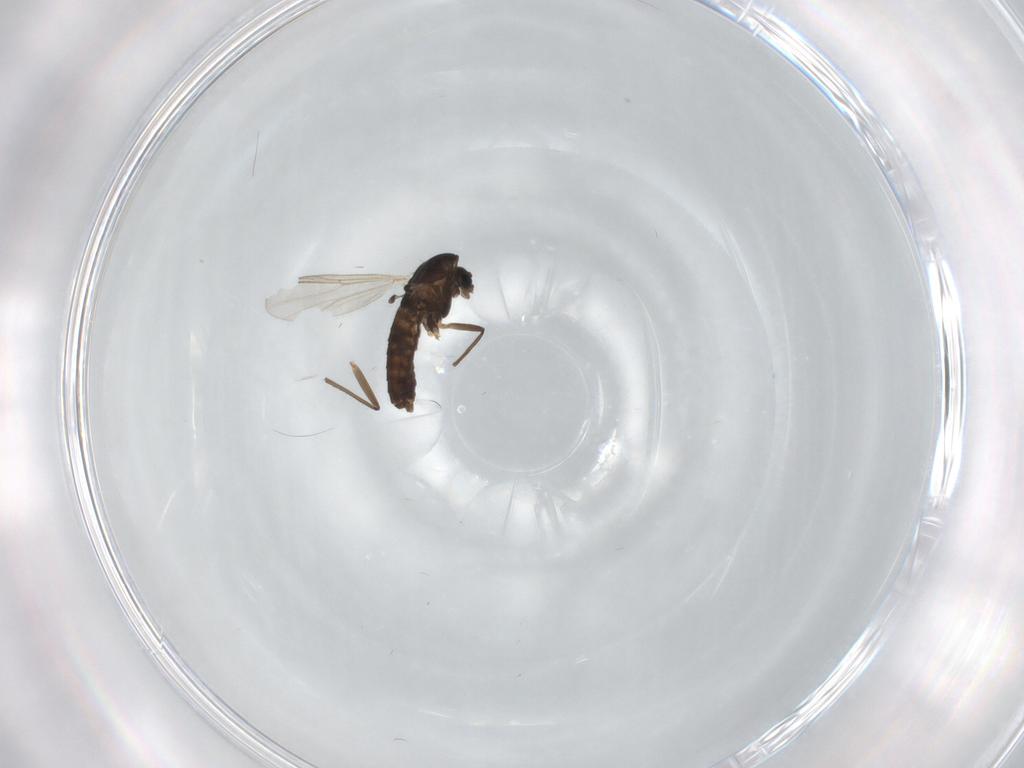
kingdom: Animalia
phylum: Arthropoda
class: Insecta
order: Diptera
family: Chironomidae
